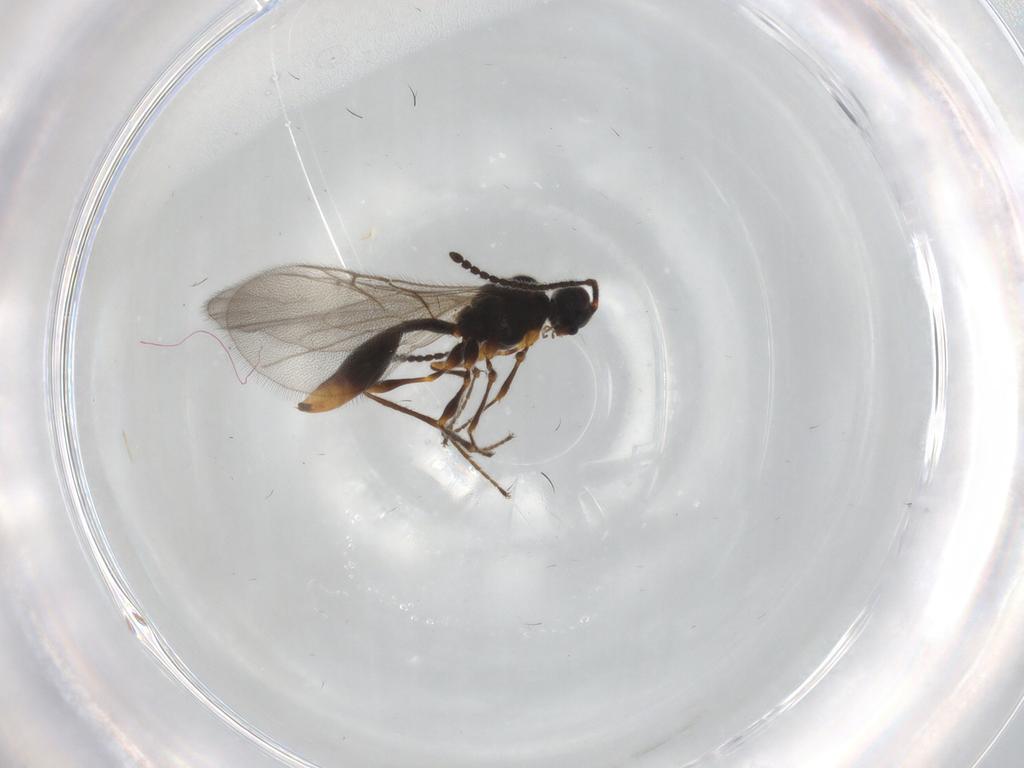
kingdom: Animalia
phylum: Arthropoda
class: Insecta
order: Hymenoptera
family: Diapriidae
